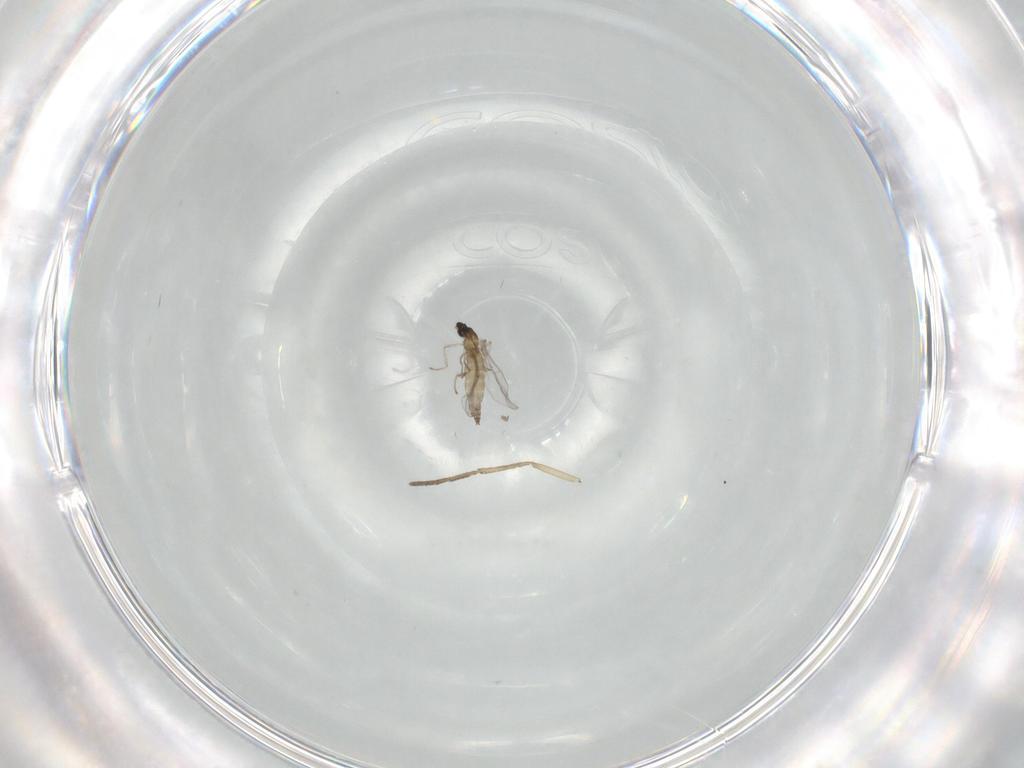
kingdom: Animalia
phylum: Arthropoda
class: Insecta
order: Diptera
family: Cecidomyiidae
